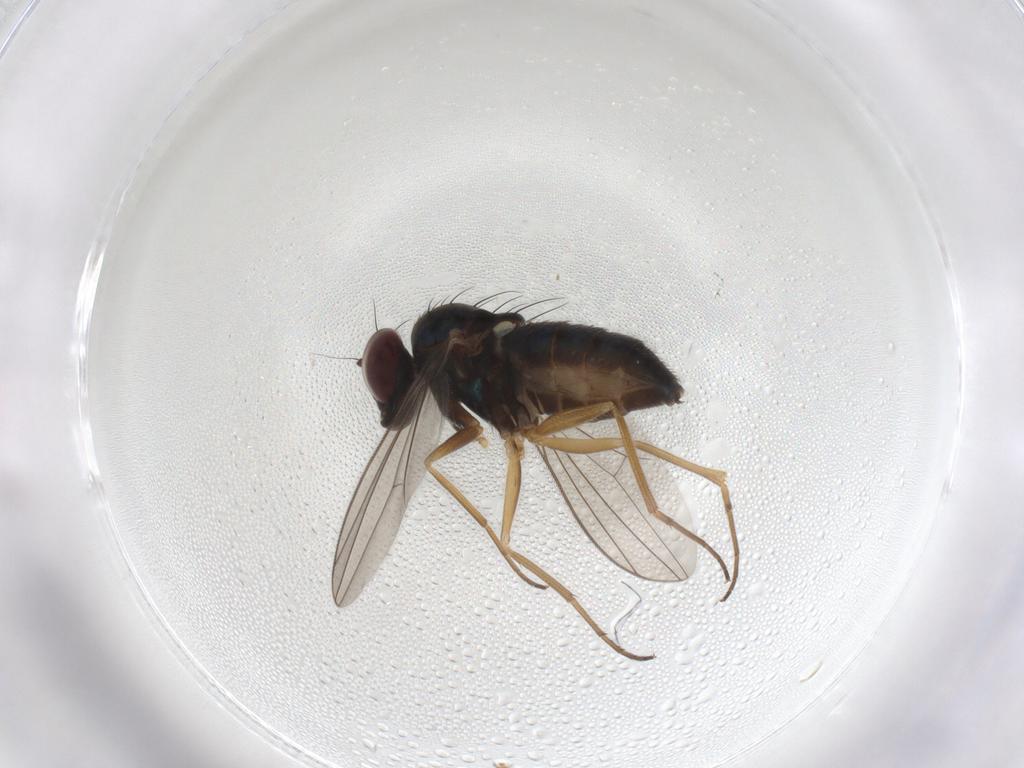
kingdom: Animalia
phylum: Arthropoda
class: Insecta
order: Diptera
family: Dolichopodidae
